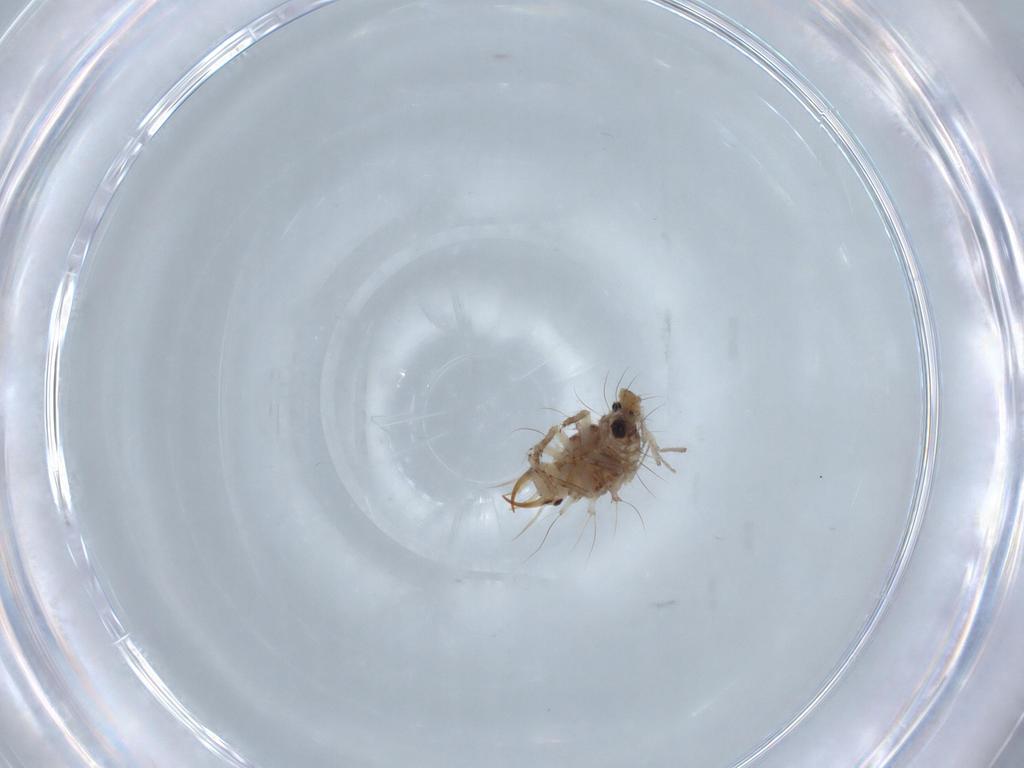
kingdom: Animalia
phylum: Arthropoda
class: Insecta
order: Neuroptera
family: Chrysopidae
